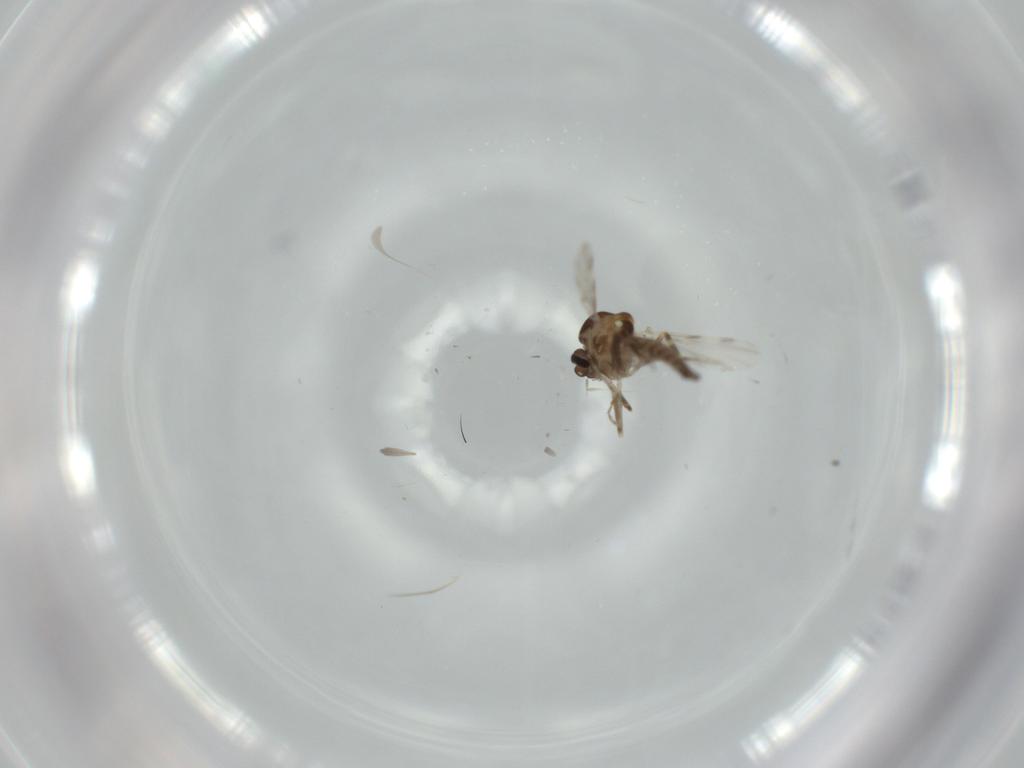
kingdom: Animalia
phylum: Arthropoda
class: Insecta
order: Diptera
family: Ceratopogonidae
